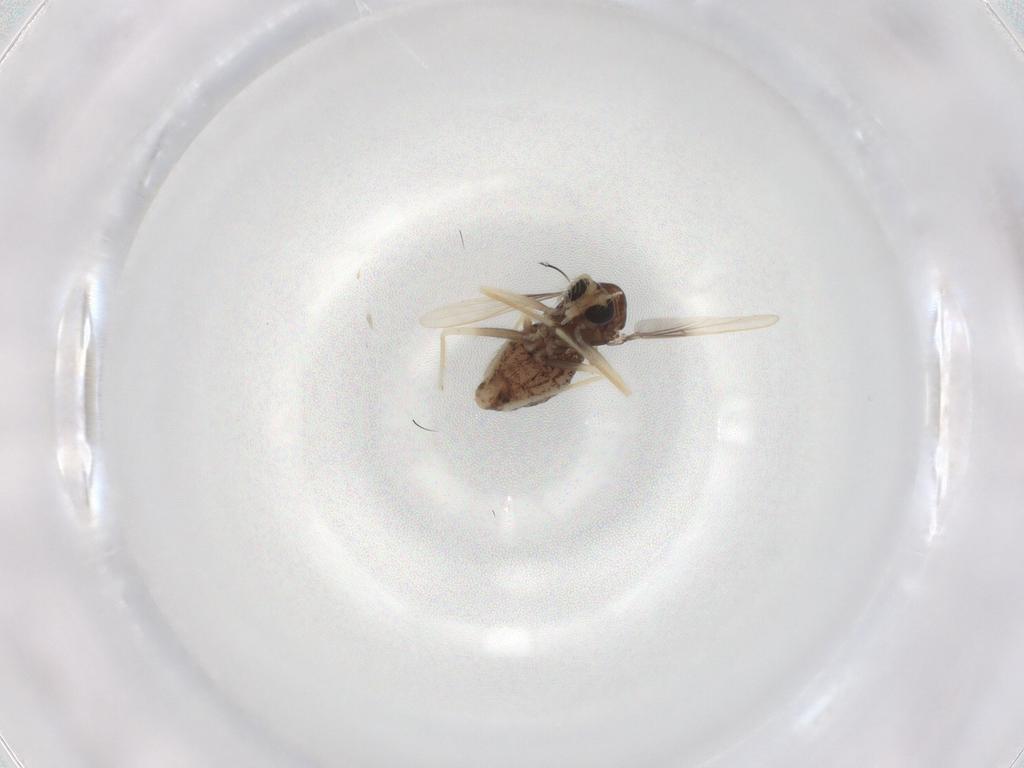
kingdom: Animalia
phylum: Arthropoda
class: Insecta
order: Diptera
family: Chironomidae
